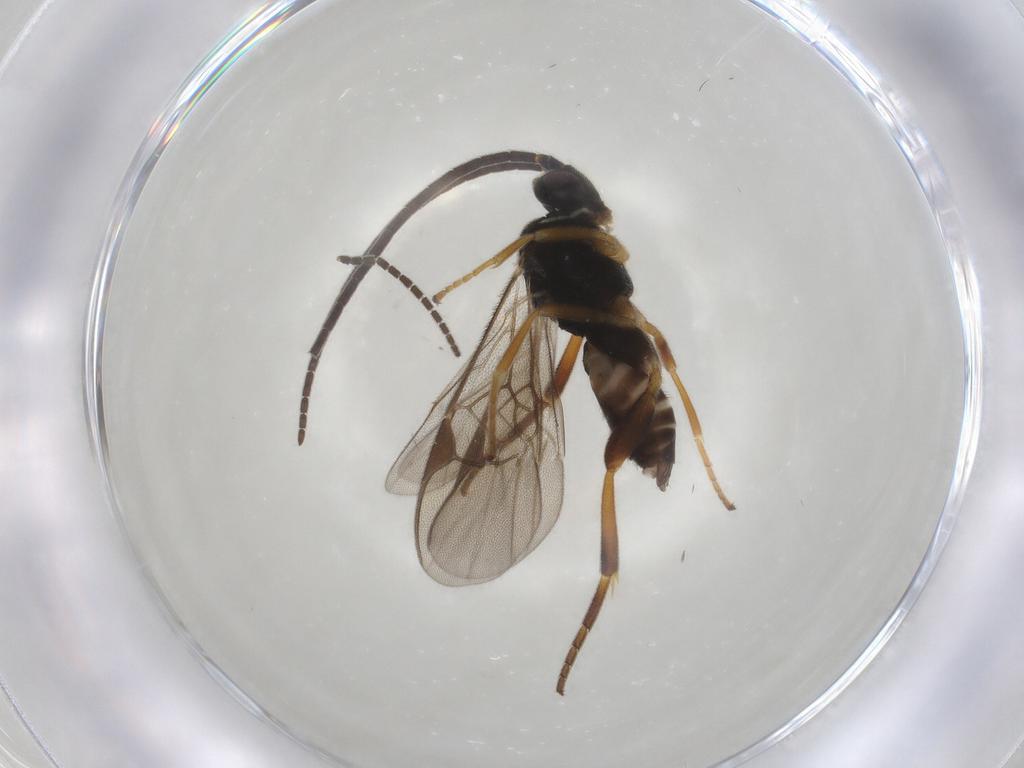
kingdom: Animalia
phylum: Arthropoda
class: Insecta
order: Hymenoptera
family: Braconidae
